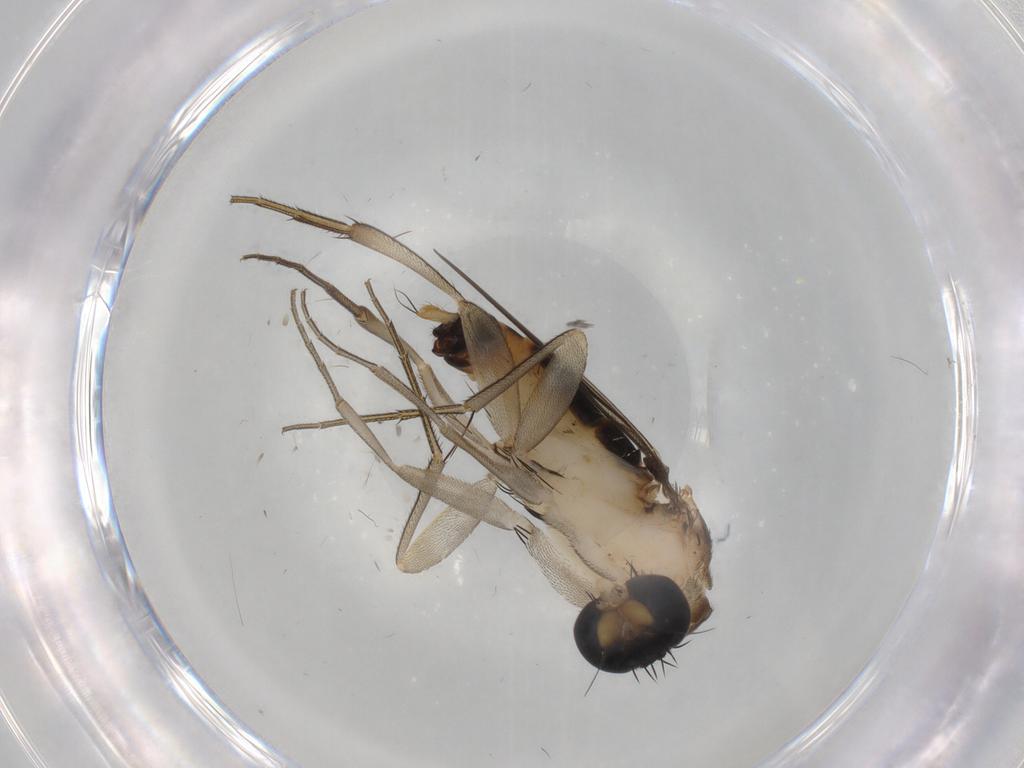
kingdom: Animalia
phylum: Arthropoda
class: Insecta
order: Diptera
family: Phoridae
